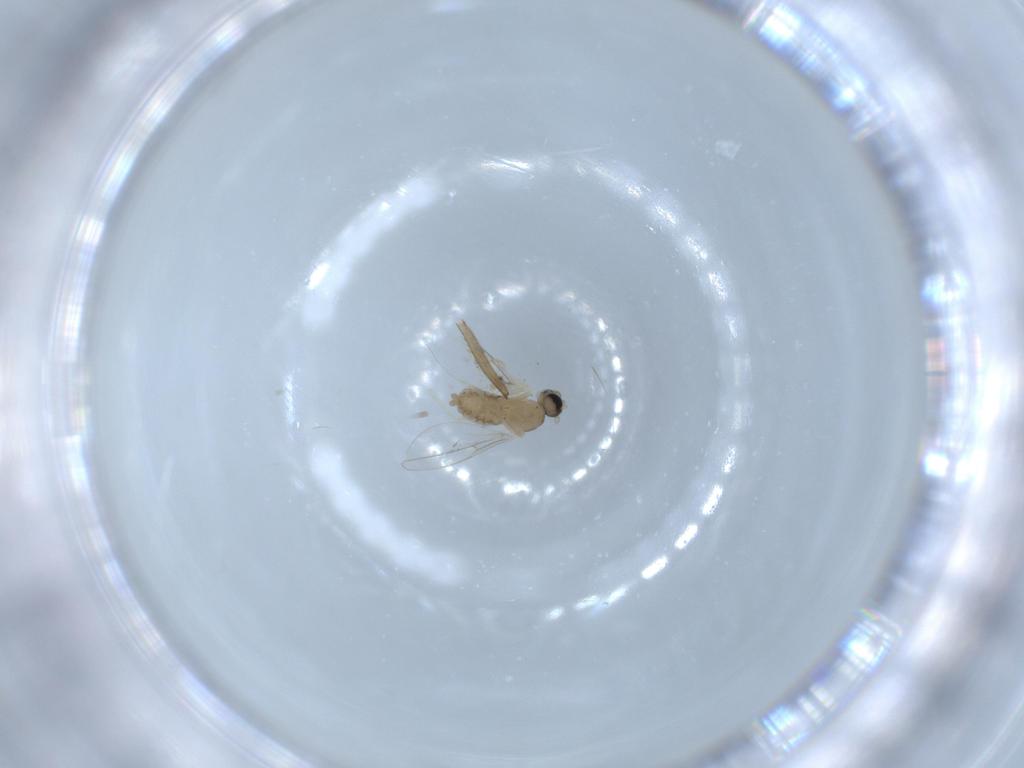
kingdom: Animalia
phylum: Arthropoda
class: Insecta
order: Diptera
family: Cecidomyiidae
